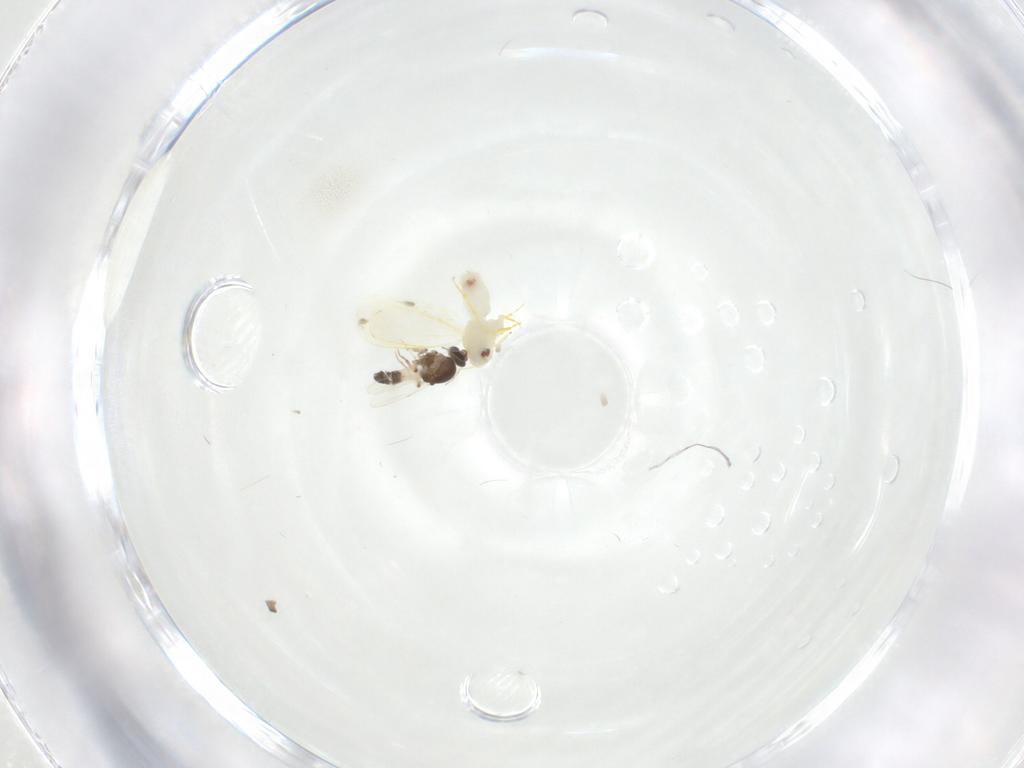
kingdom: Animalia
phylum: Arthropoda
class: Insecta
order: Hemiptera
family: Aleyrodidae
